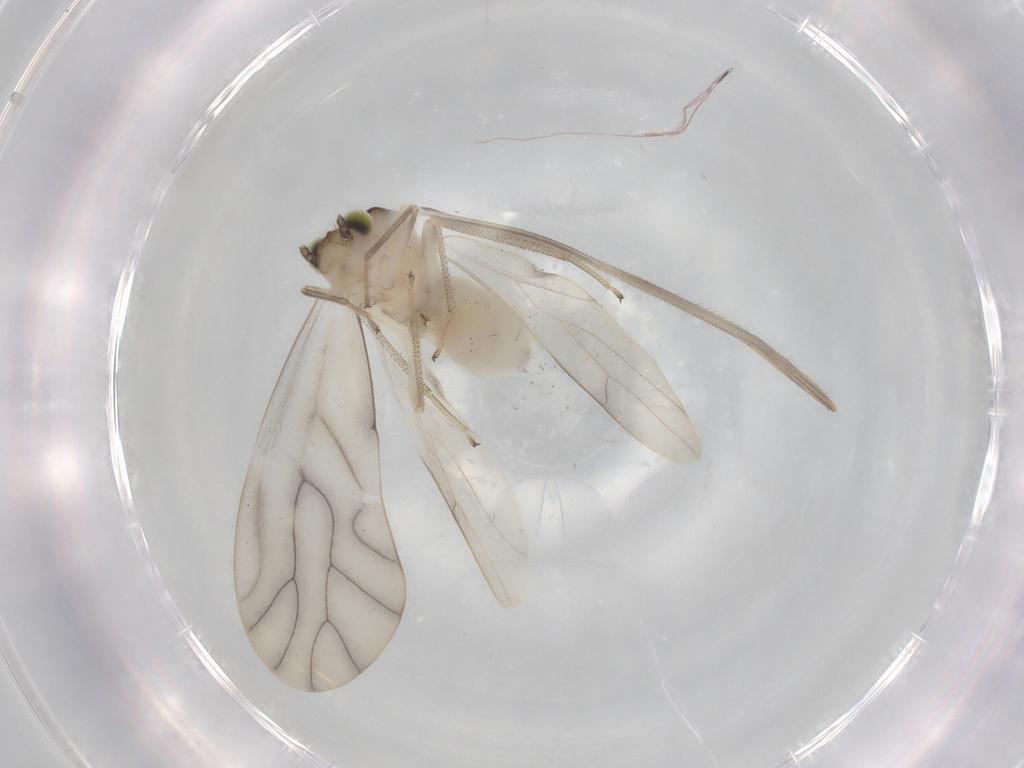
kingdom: Animalia
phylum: Arthropoda
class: Insecta
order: Psocodea
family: Caeciliusidae
